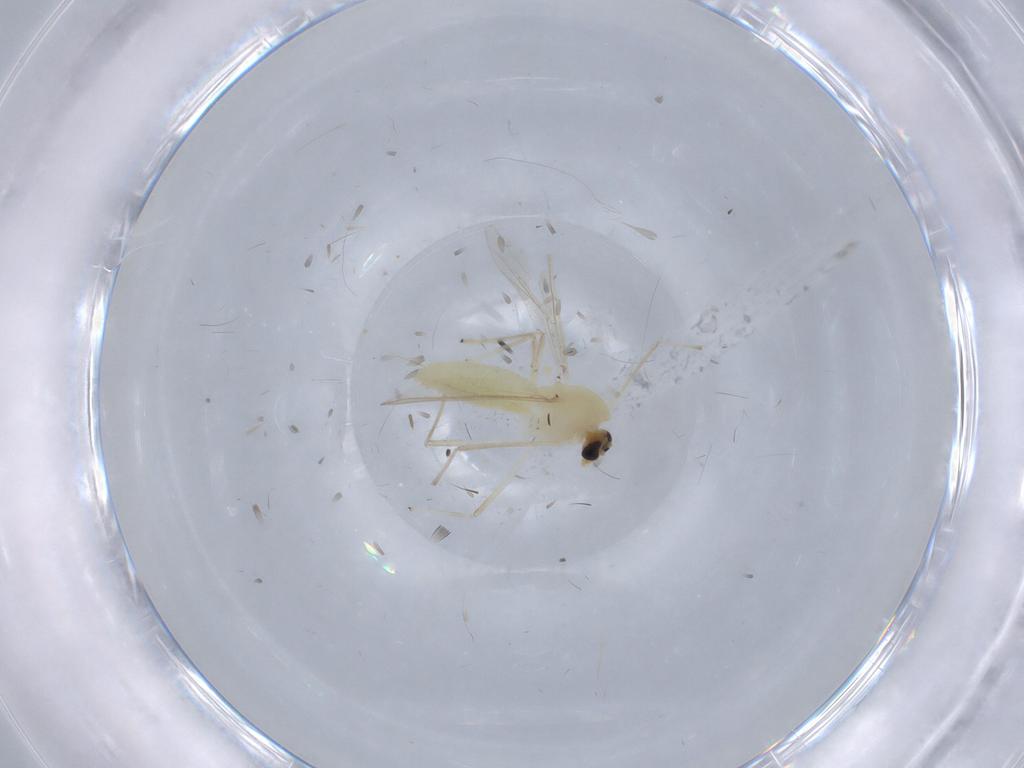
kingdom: Animalia
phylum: Arthropoda
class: Insecta
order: Diptera
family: Chironomidae
